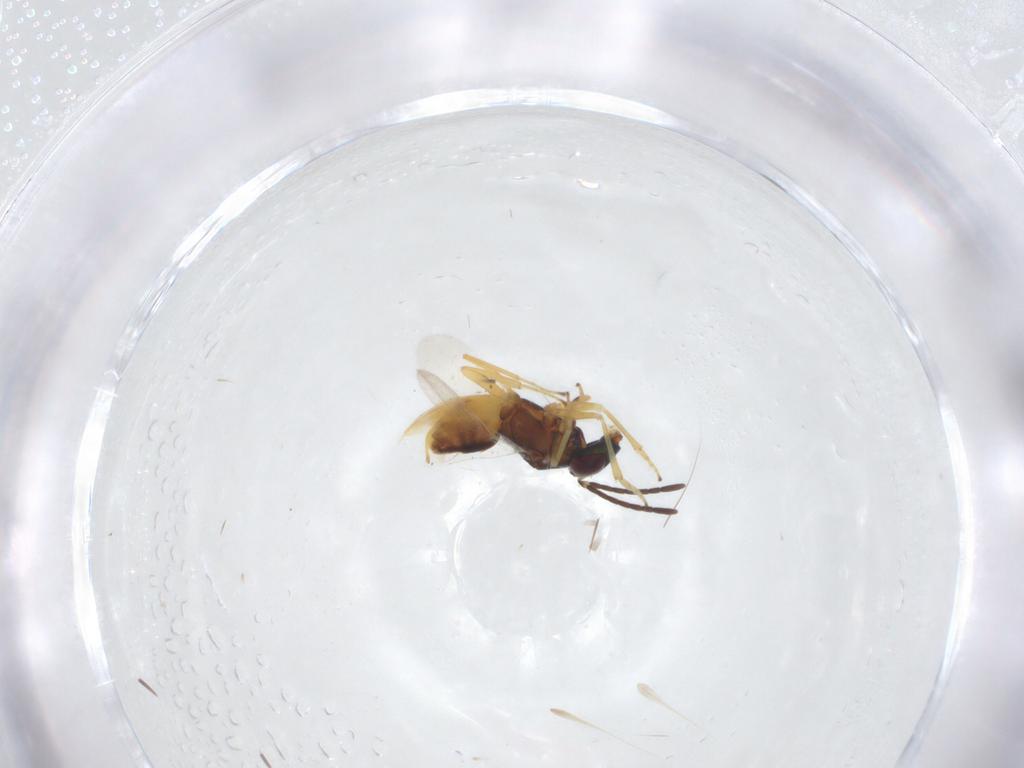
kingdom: Animalia
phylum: Arthropoda
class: Insecta
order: Hymenoptera
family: Encyrtidae
